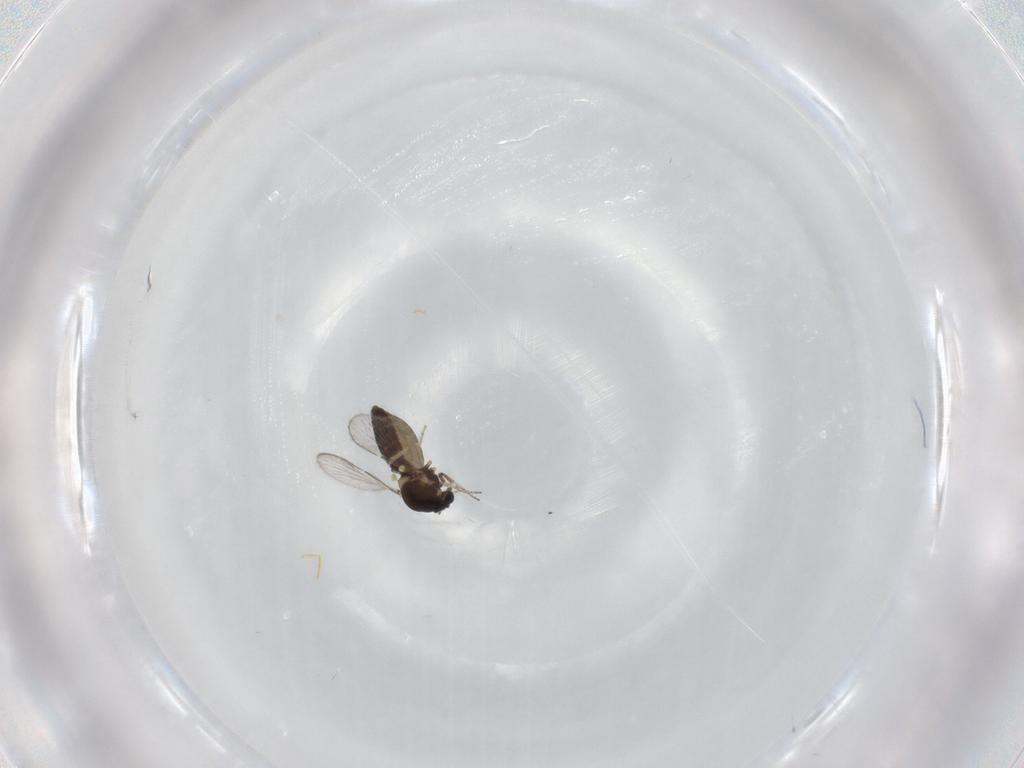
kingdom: Animalia
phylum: Arthropoda
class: Insecta
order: Diptera
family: Ceratopogonidae
